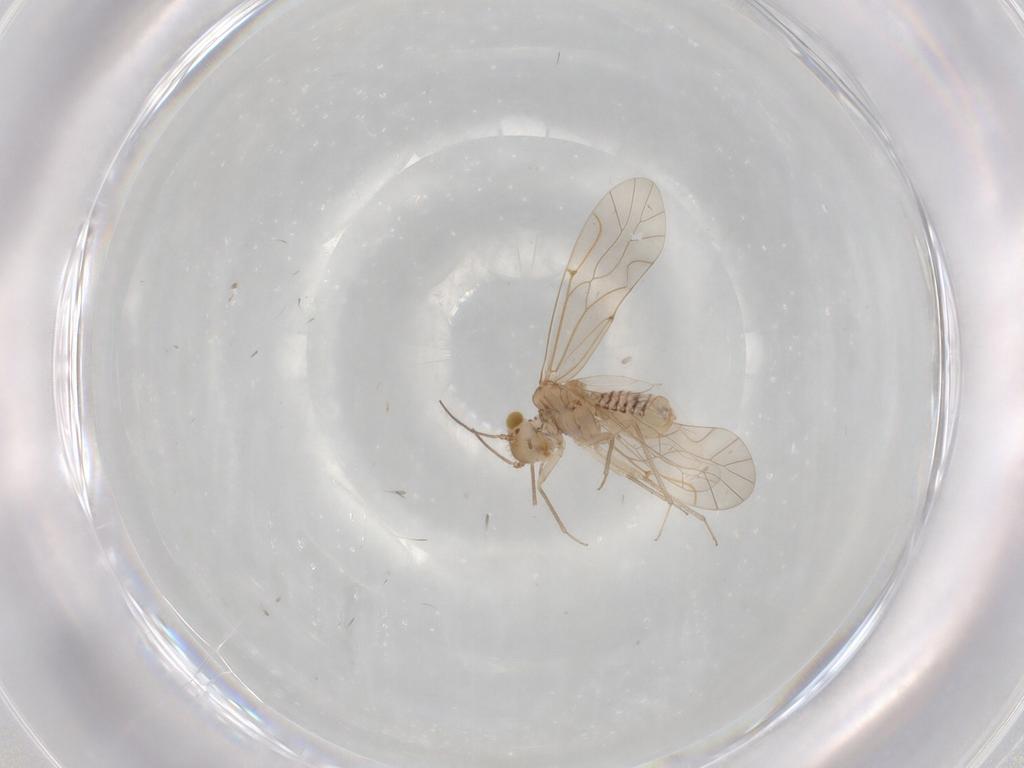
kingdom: Animalia
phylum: Arthropoda
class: Insecta
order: Psocodea
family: Lachesillidae
